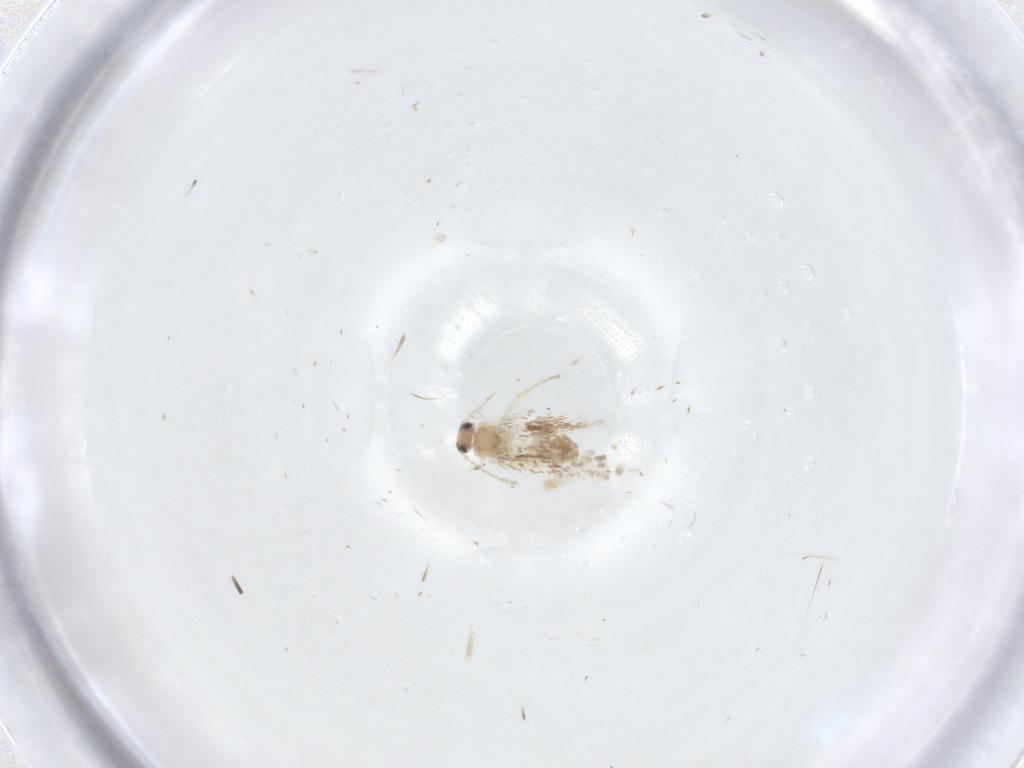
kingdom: Animalia
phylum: Arthropoda
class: Insecta
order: Lepidoptera
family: Nepticulidae
